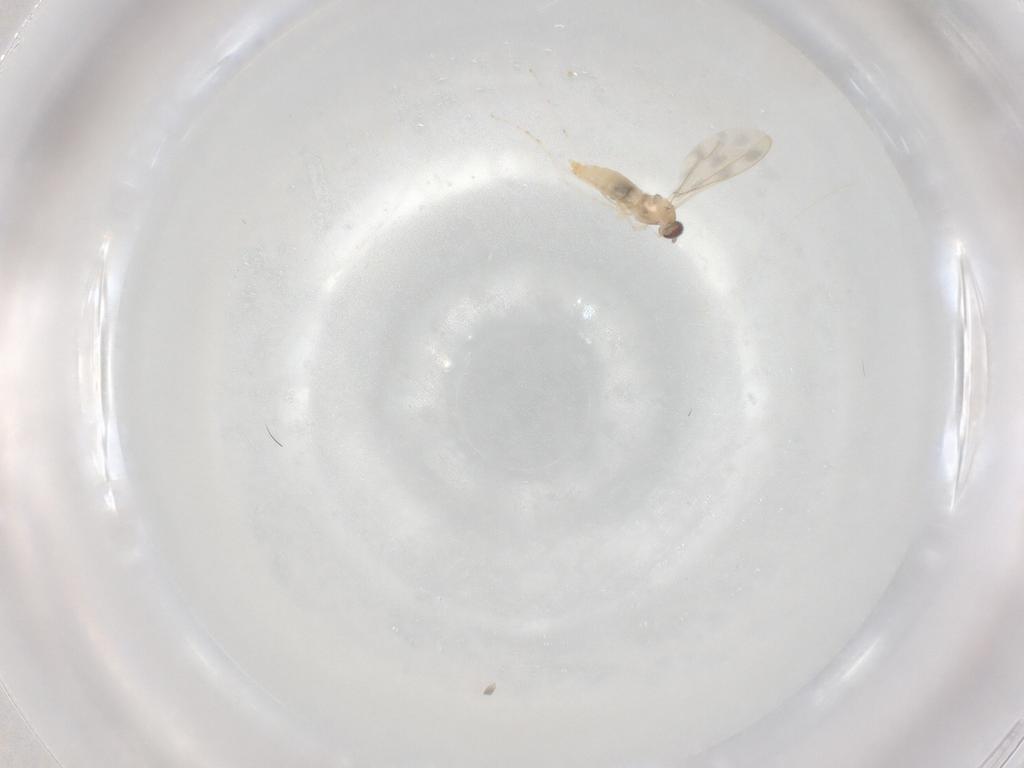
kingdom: Animalia
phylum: Arthropoda
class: Insecta
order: Diptera
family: Cecidomyiidae
